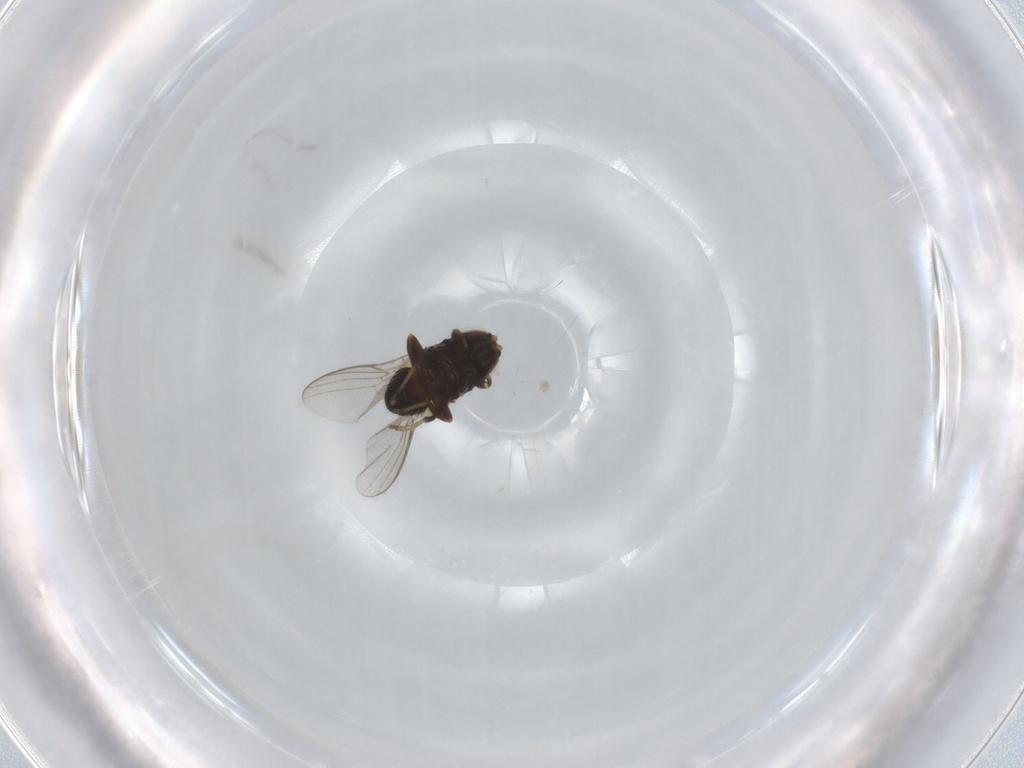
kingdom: Animalia
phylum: Arthropoda
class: Insecta
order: Diptera
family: Chloropidae
